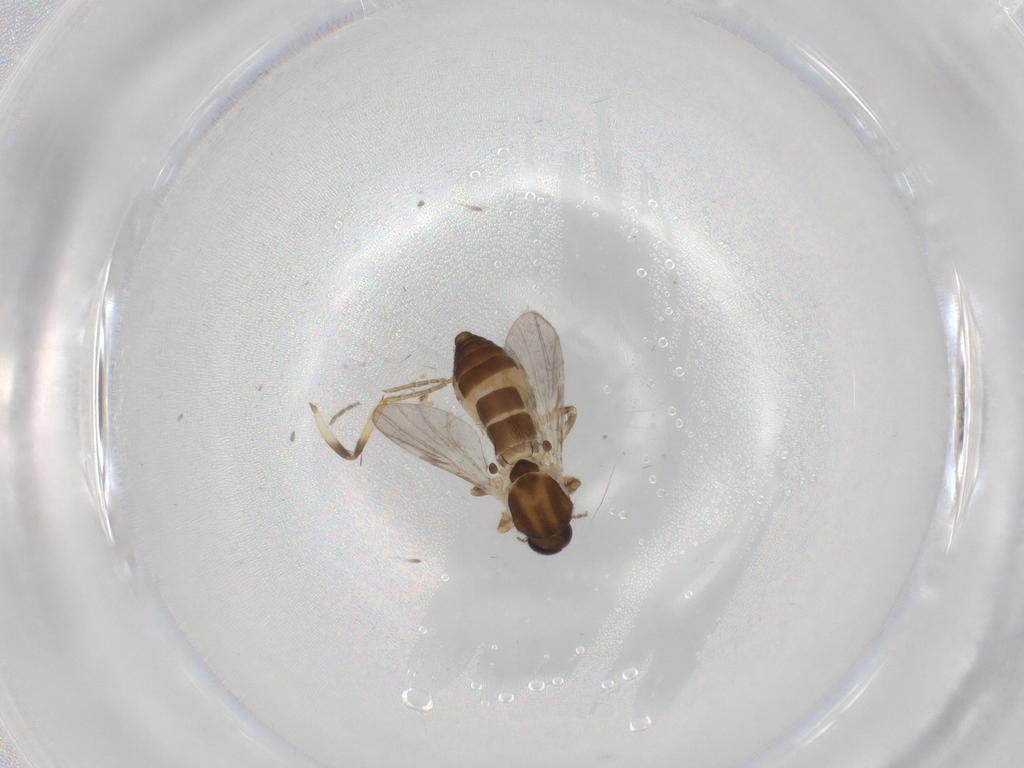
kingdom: Animalia
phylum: Arthropoda
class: Insecta
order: Diptera
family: Ceratopogonidae
